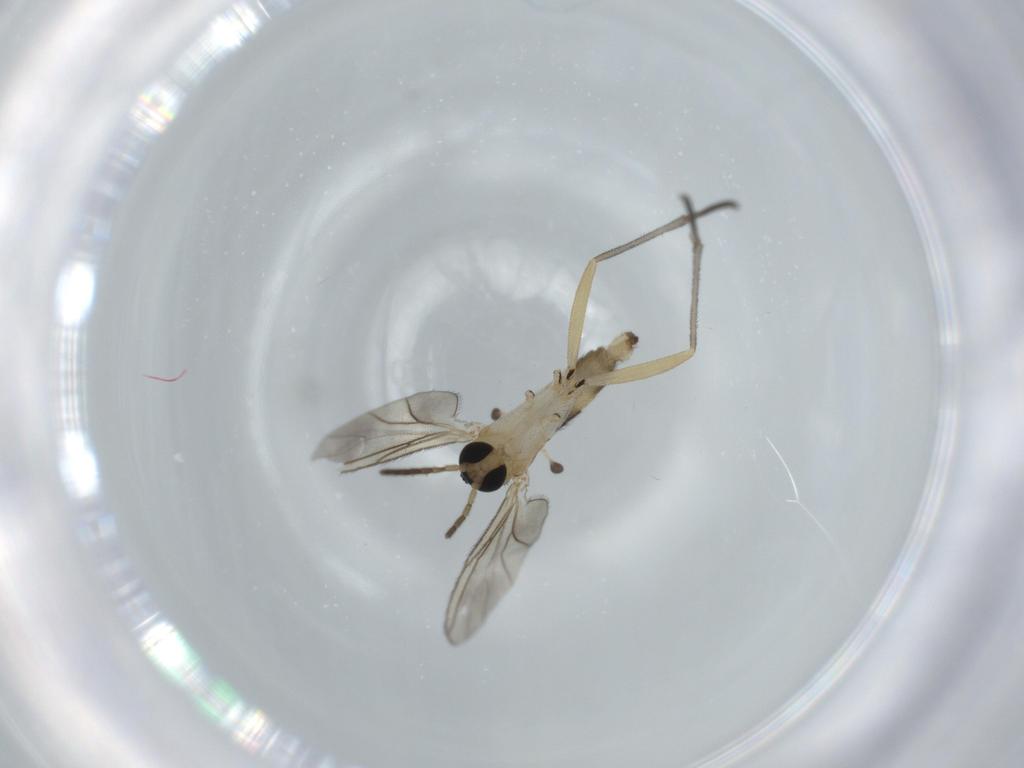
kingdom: Animalia
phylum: Arthropoda
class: Insecta
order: Diptera
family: Sciaridae
